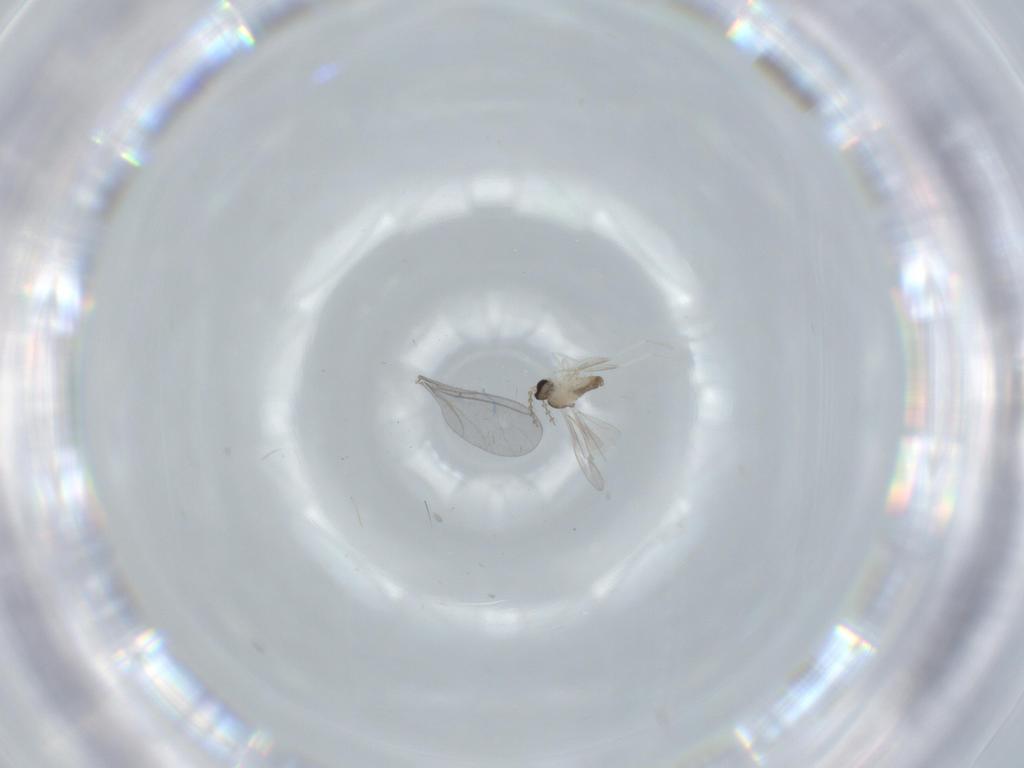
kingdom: Animalia
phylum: Arthropoda
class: Insecta
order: Diptera
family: Cecidomyiidae
